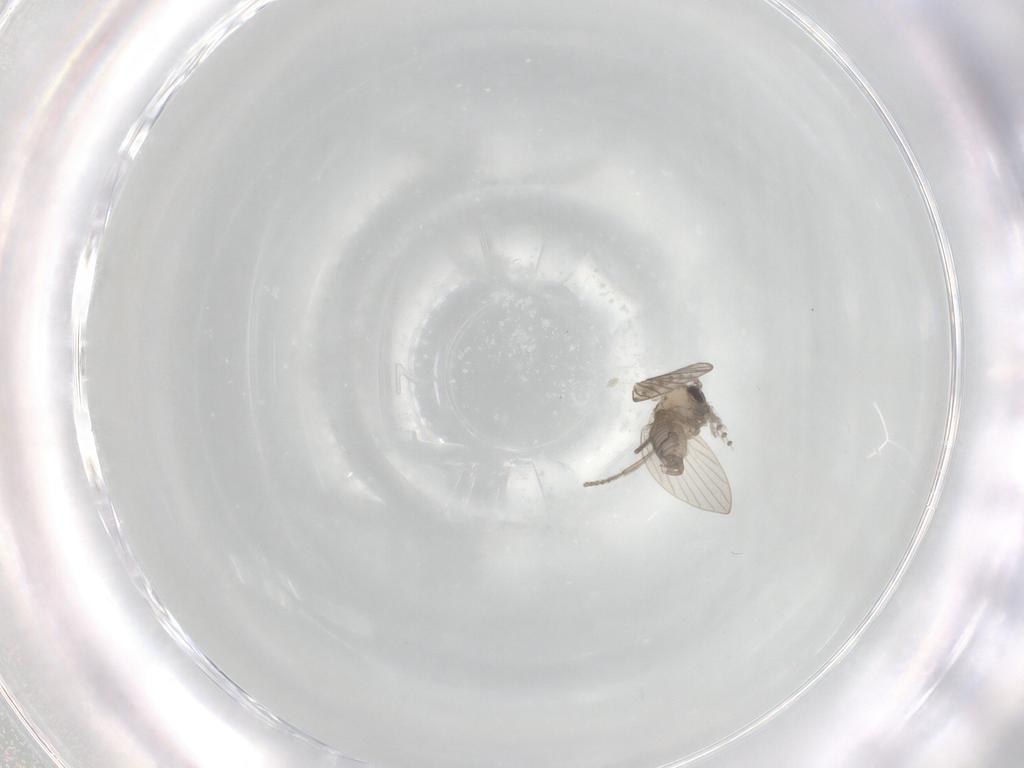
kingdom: Animalia
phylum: Arthropoda
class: Insecta
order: Diptera
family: Psychodidae
